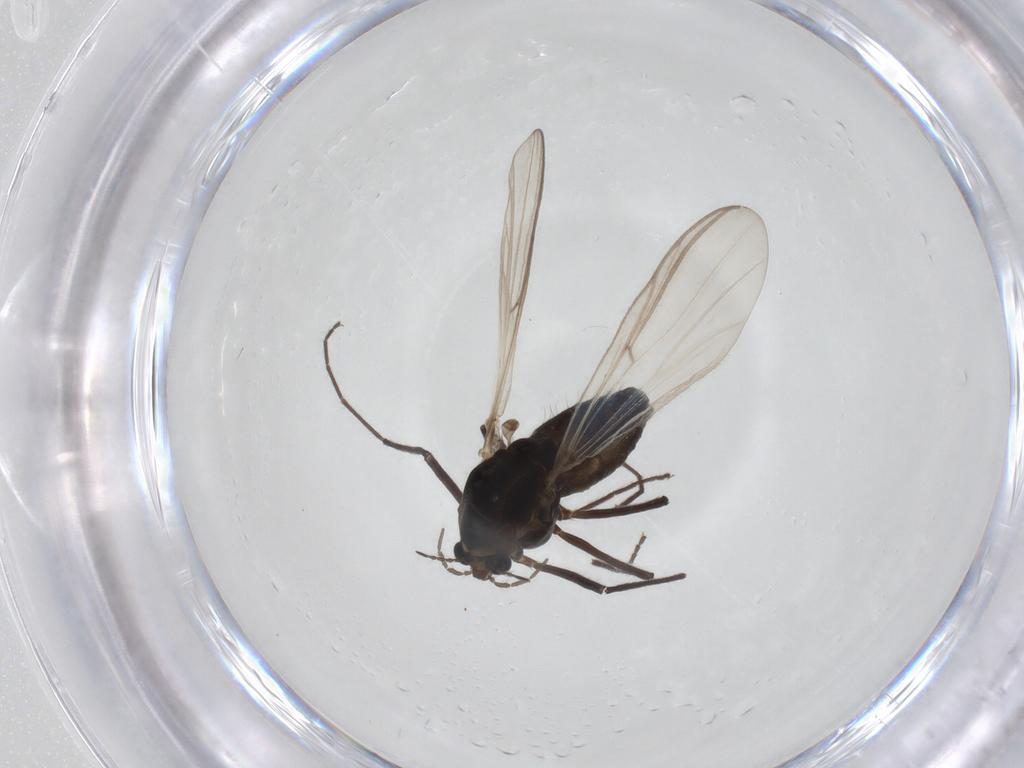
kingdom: Animalia
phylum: Arthropoda
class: Insecta
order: Diptera
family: Chironomidae
